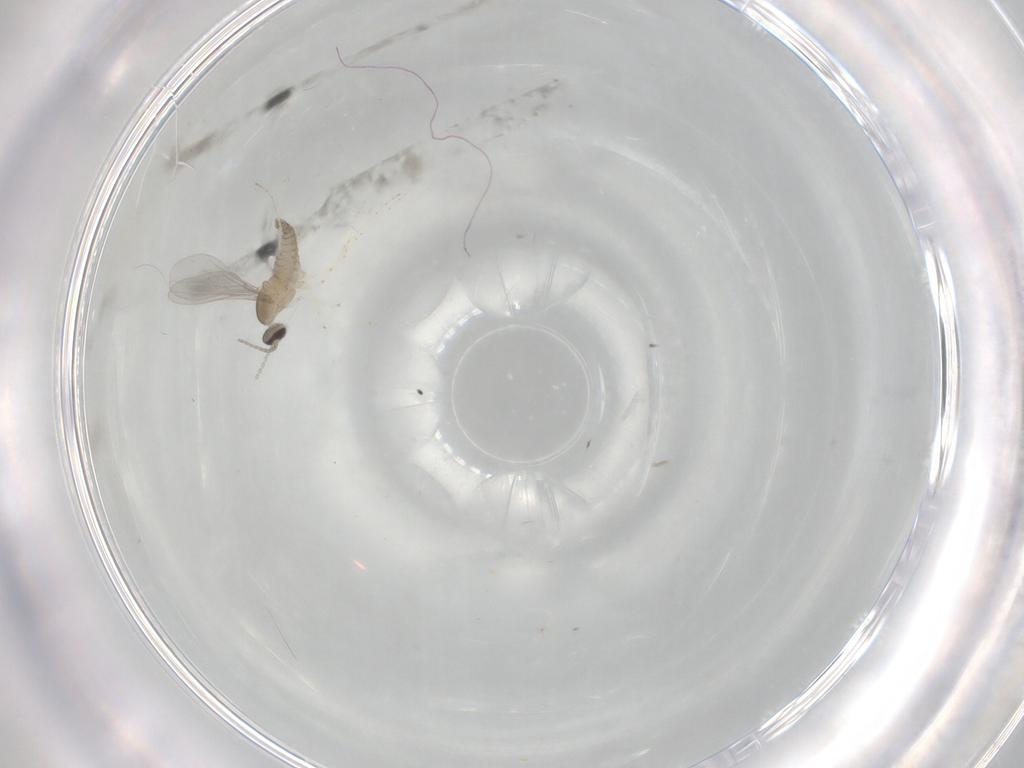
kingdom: Animalia
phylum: Arthropoda
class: Insecta
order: Diptera
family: Cecidomyiidae
